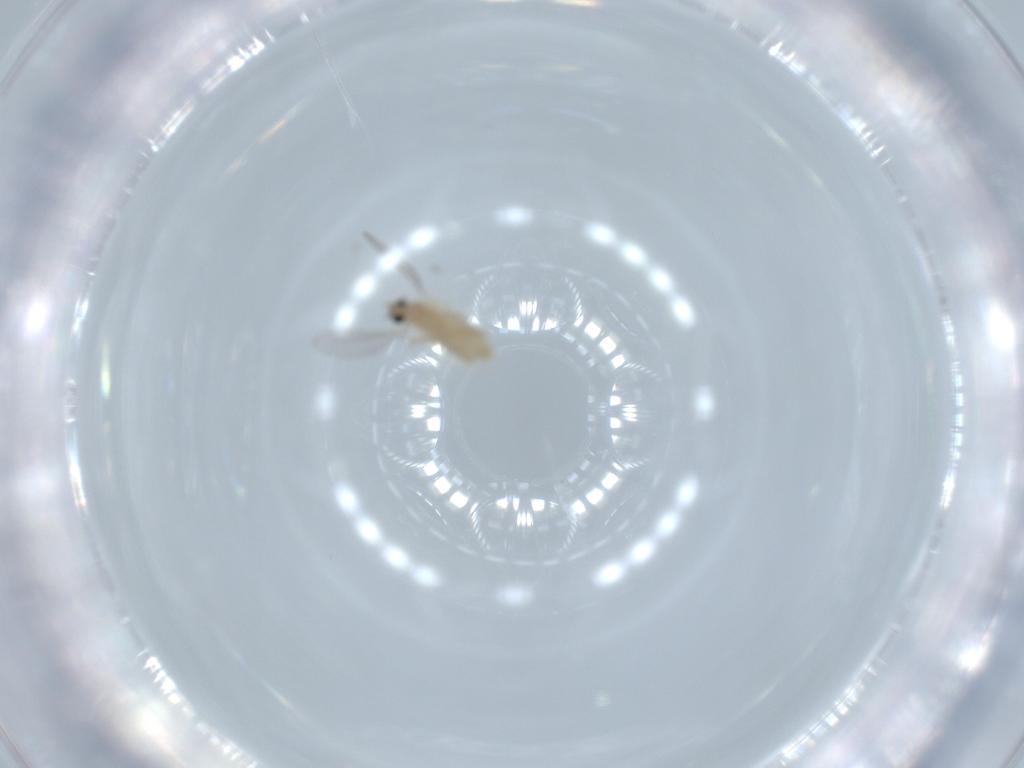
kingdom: Animalia
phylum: Arthropoda
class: Insecta
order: Diptera
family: Cecidomyiidae
